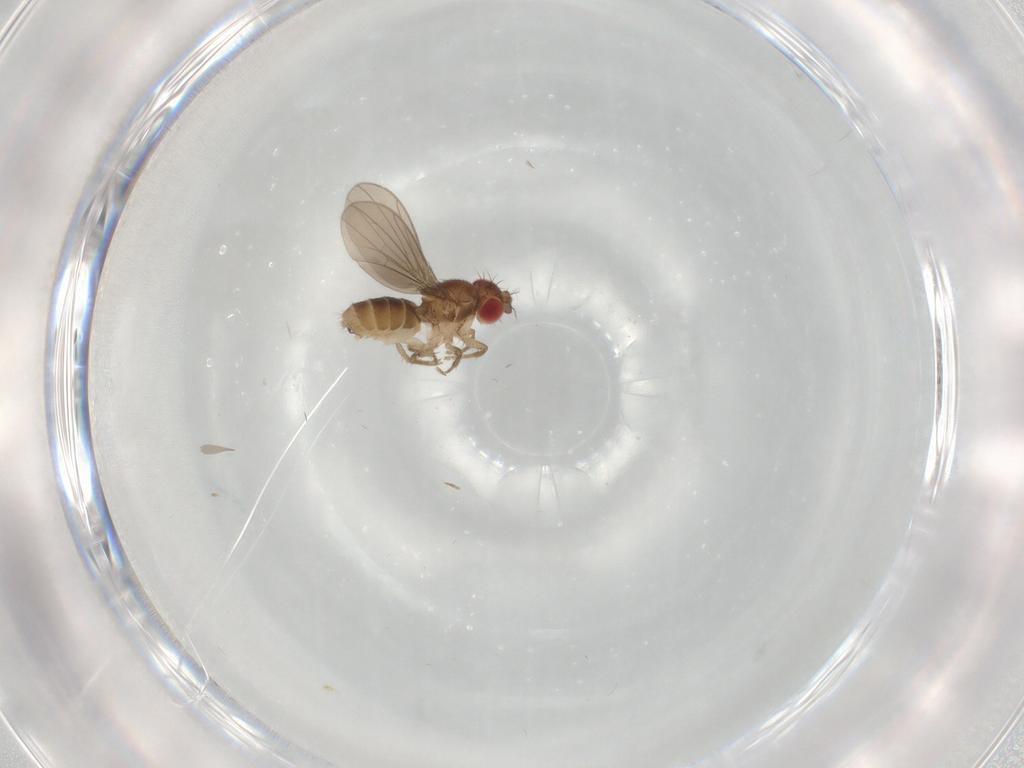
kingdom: Animalia
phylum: Arthropoda
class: Insecta
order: Diptera
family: Drosophilidae
